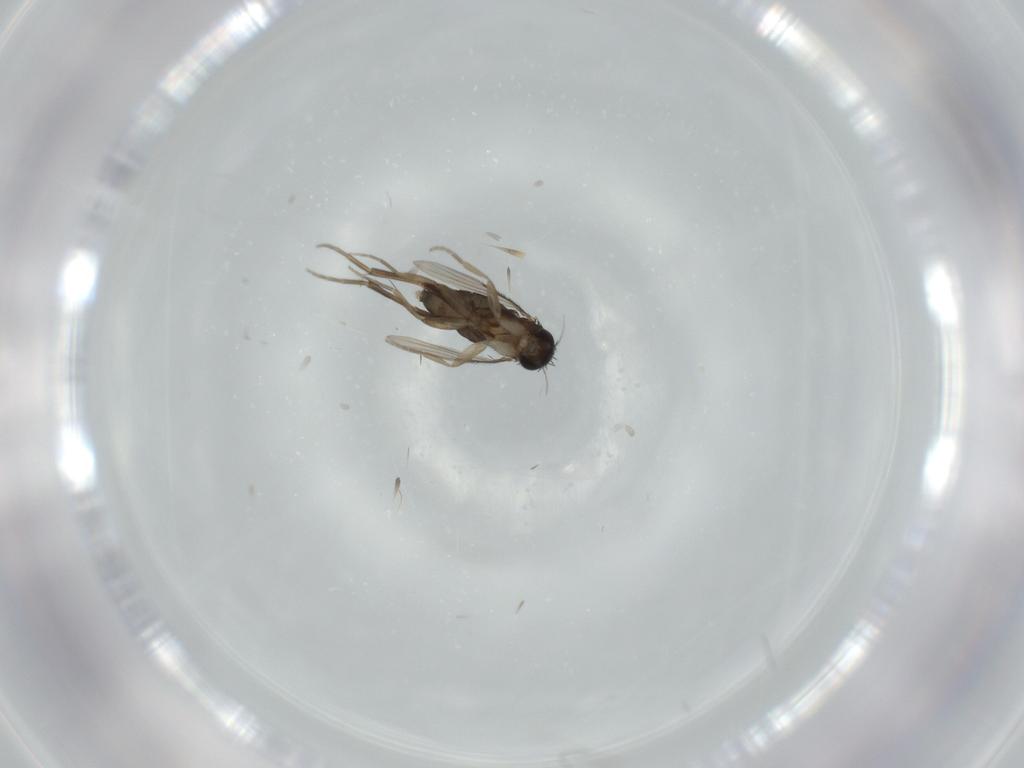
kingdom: Animalia
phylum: Arthropoda
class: Insecta
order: Diptera
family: Phoridae
